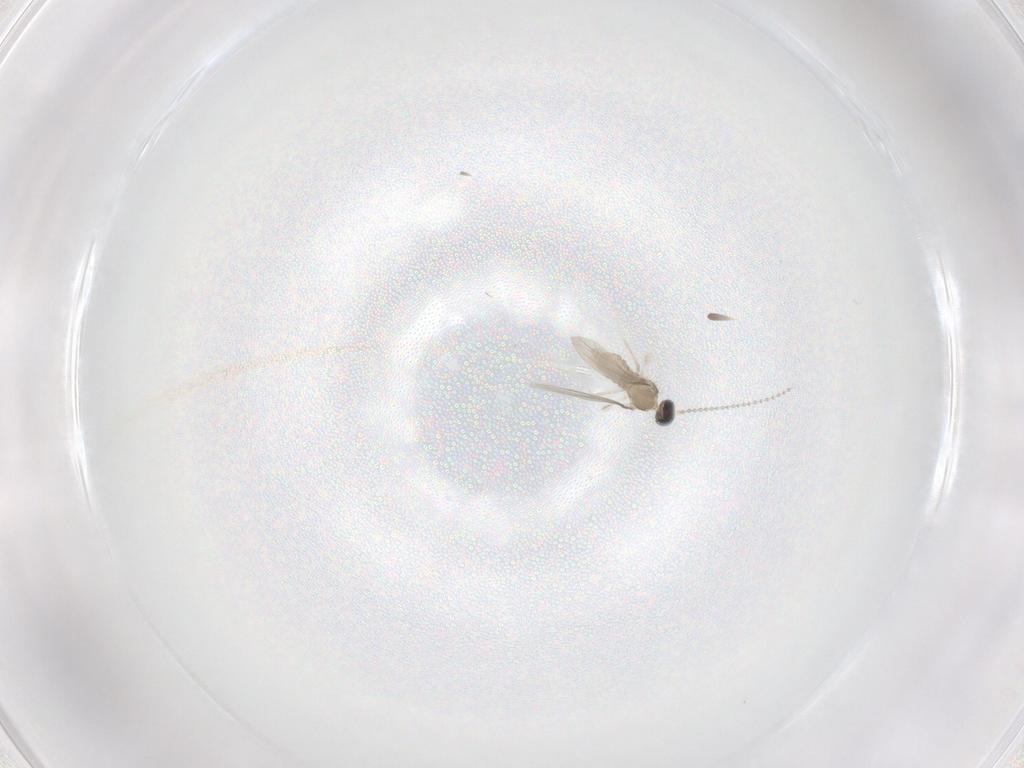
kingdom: Animalia
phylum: Arthropoda
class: Insecta
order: Diptera
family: Cecidomyiidae
